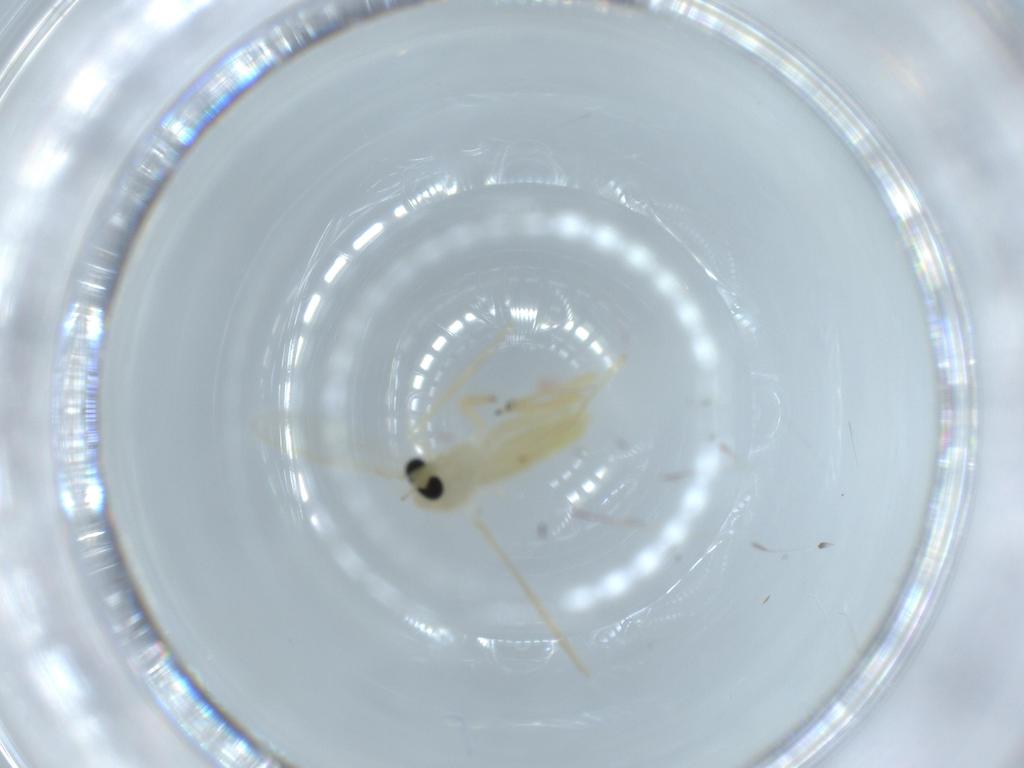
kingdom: Animalia
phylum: Arthropoda
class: Insecta
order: Diptera
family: Chironomidae
